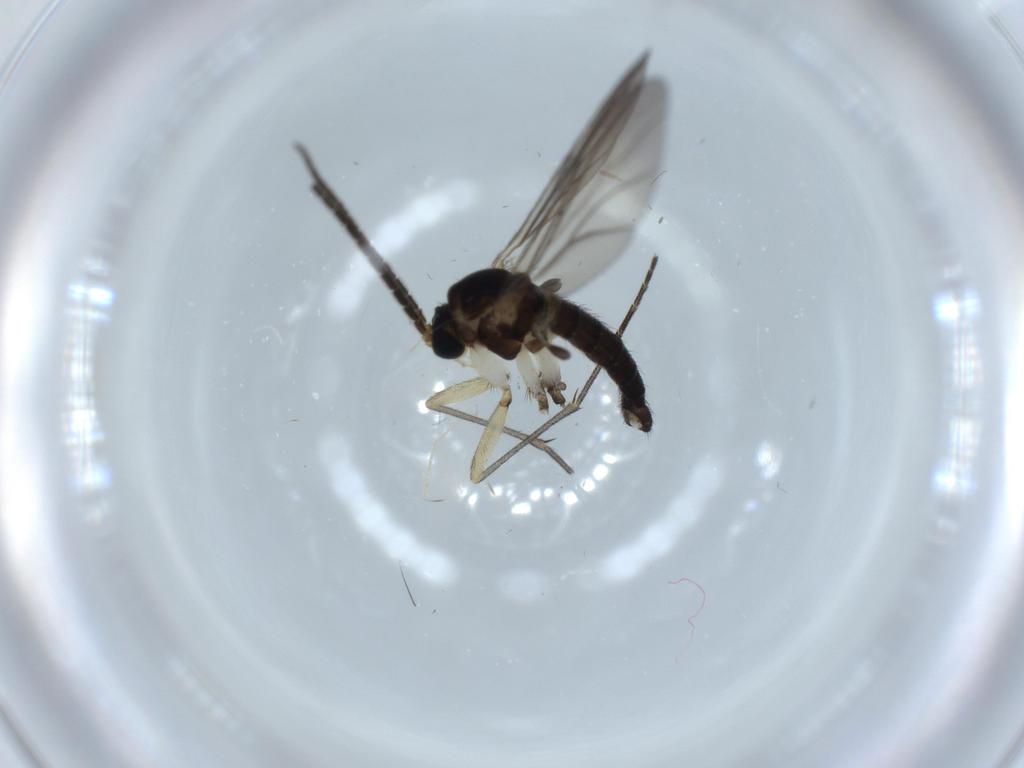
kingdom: Animalia
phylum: Arthropoda
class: Insecta
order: Diptera
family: Sciaridae
